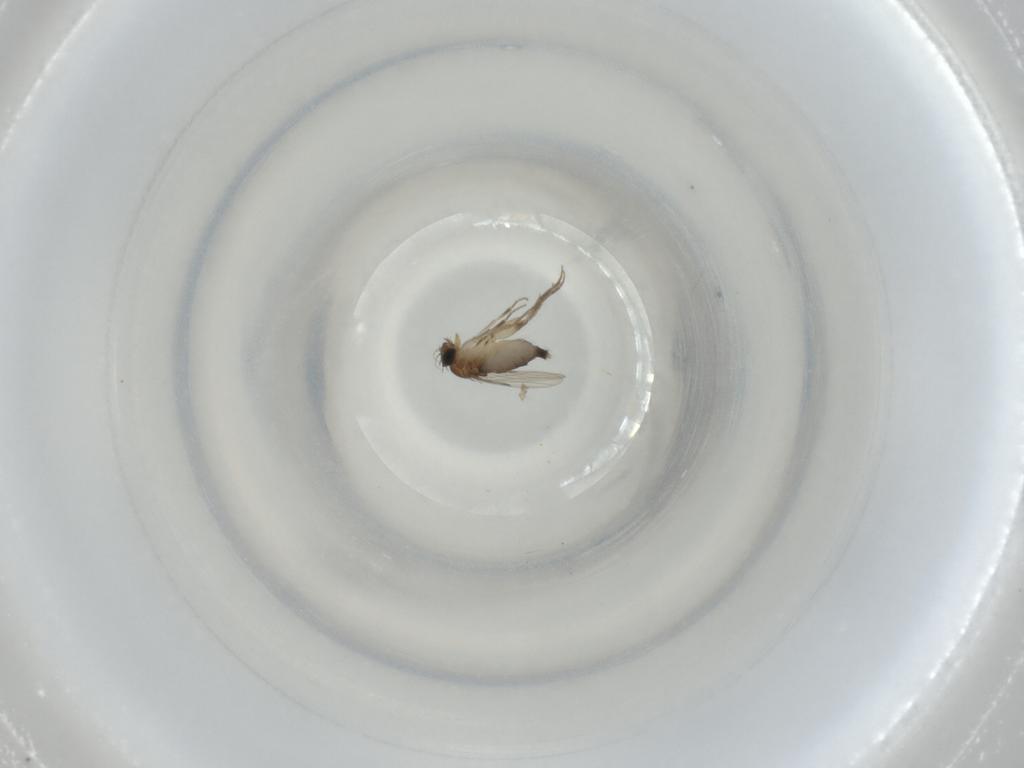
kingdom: Animalia
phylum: Arthropoda
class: Insecta
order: Diptera
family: Phoridae
